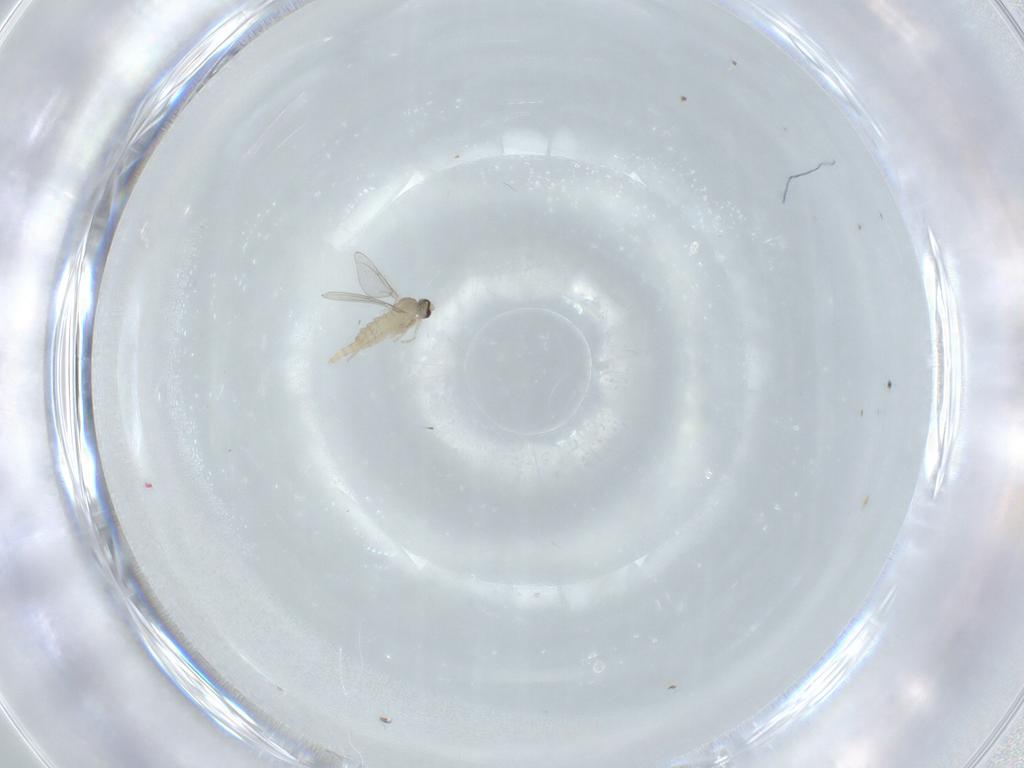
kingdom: Animalia
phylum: Arthropoda
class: Insecta
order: Diptera
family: Cecidomyiidae
